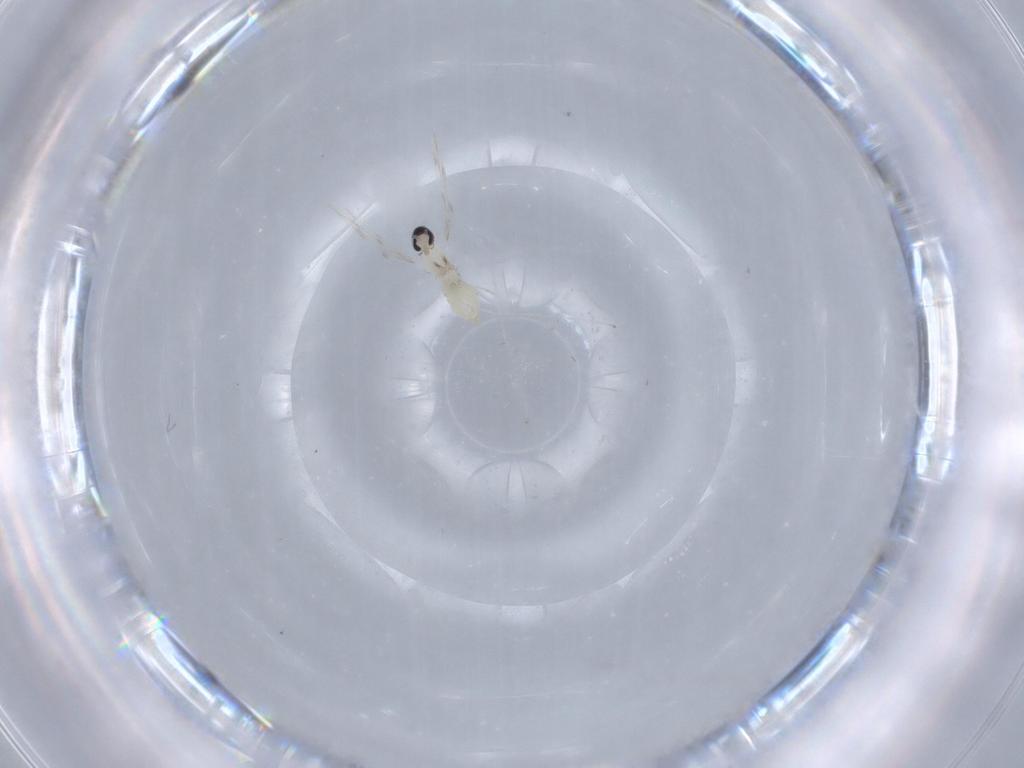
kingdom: Animalia
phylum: Arthropoda
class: Insecta
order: Diptera
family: Cecidomyiidae
